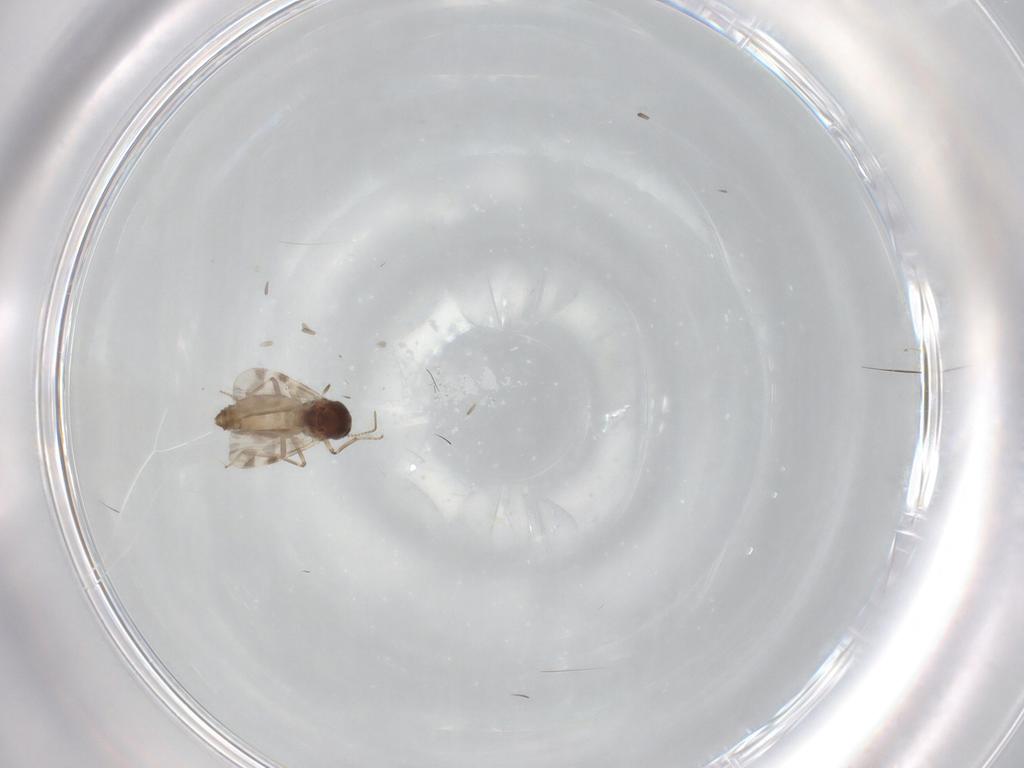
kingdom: Animalia
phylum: Arthropoda
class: Insecta
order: Diptera
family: Ceratopogonidae
